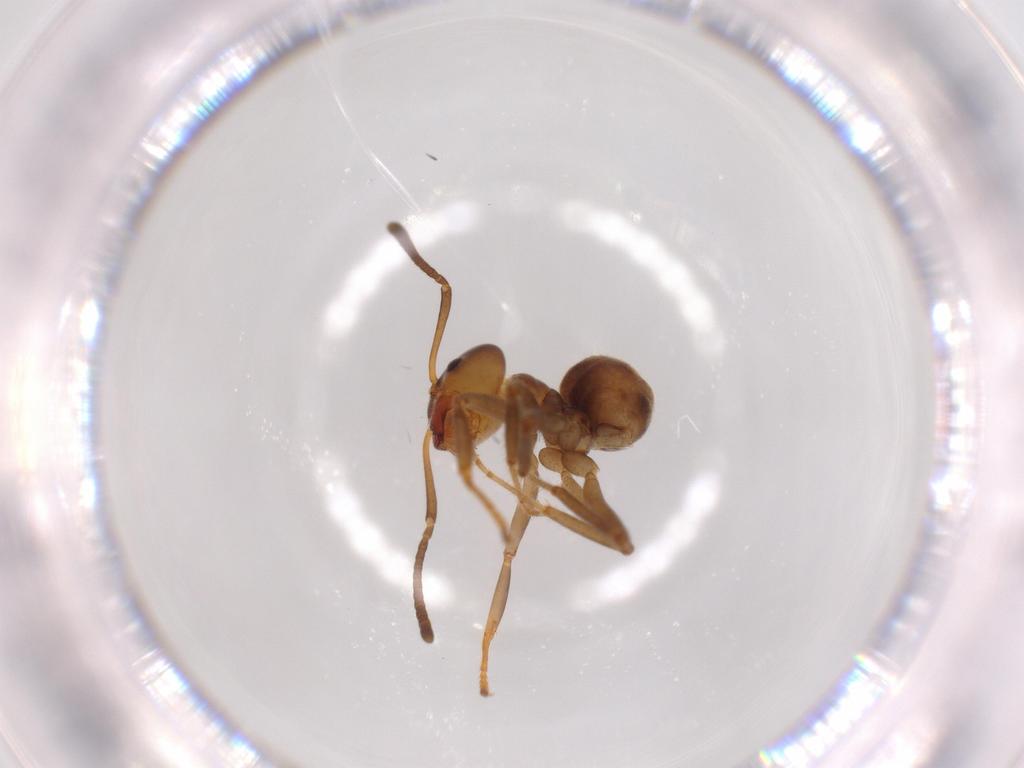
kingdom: Animalia
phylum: Arthropoda
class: Insecta
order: Hymenoptera
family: Formicidae
